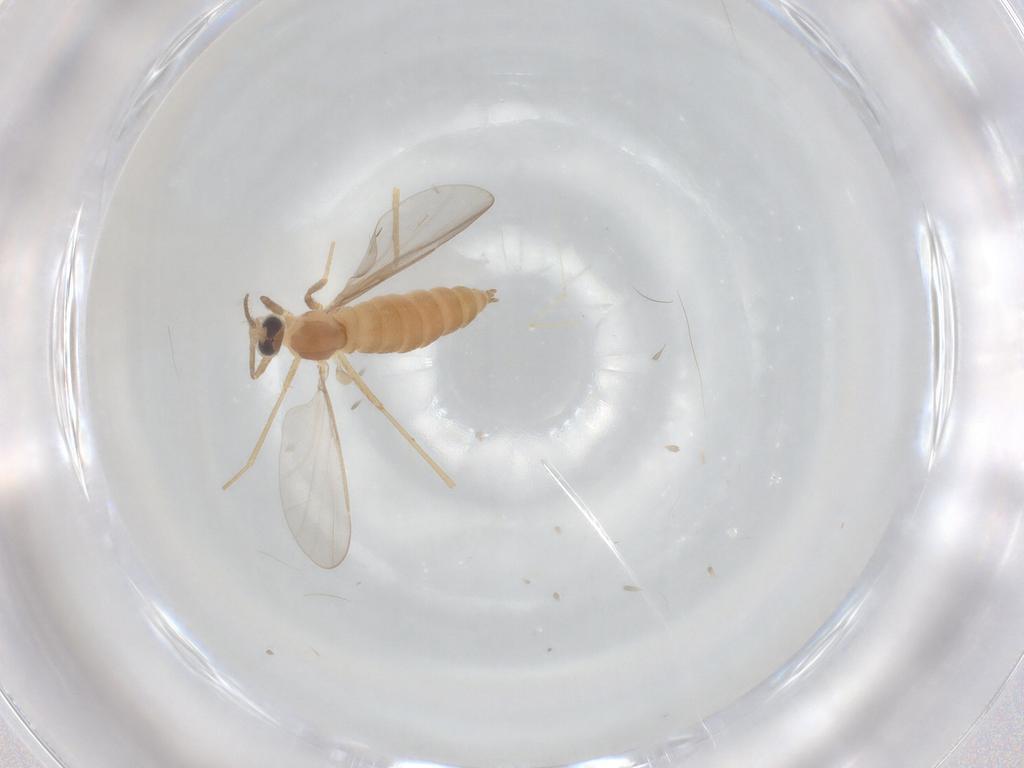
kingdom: Animalia
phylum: Arthropoda
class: Insecta
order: Diptera
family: Cecidomyiidae
